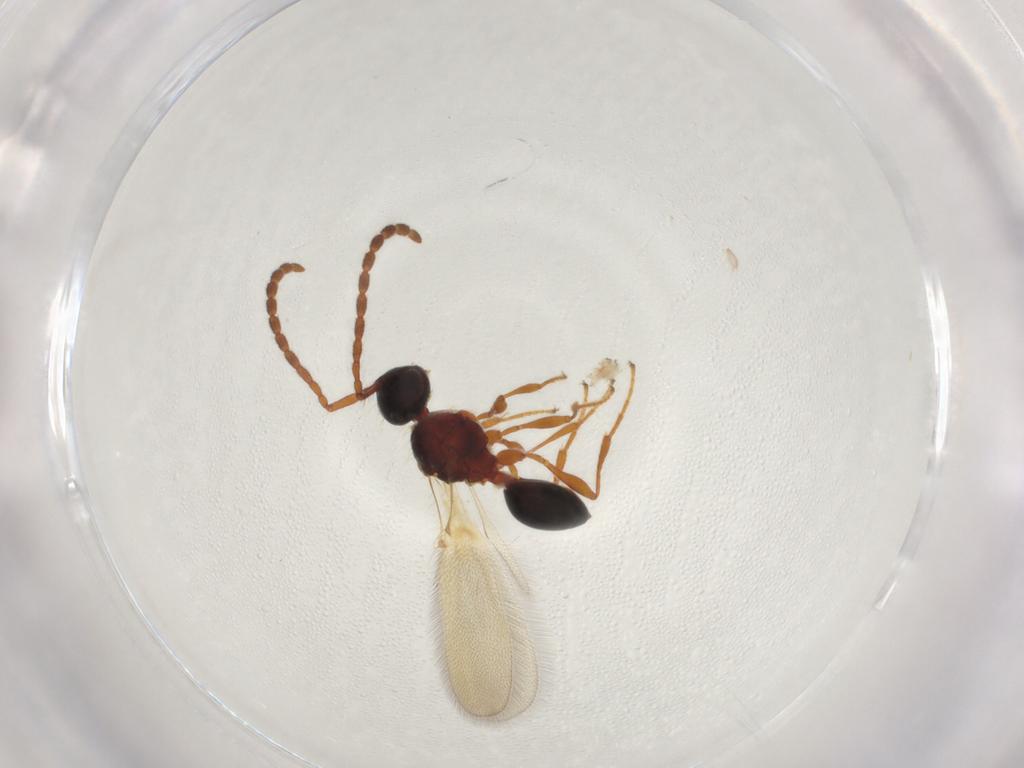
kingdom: Animalia
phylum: Arthropoda
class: Insecta
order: Hymenoptera
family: Diapriidae
